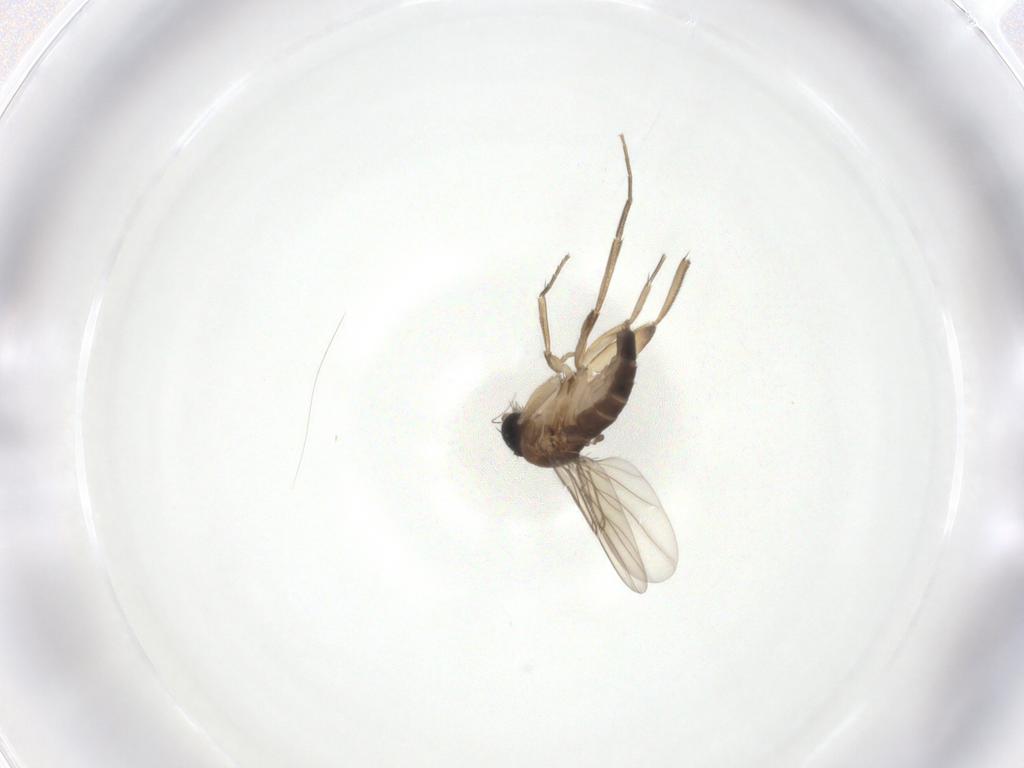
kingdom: Animalia
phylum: Arthropoda
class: Insecta
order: Diptera
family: Phoridae
